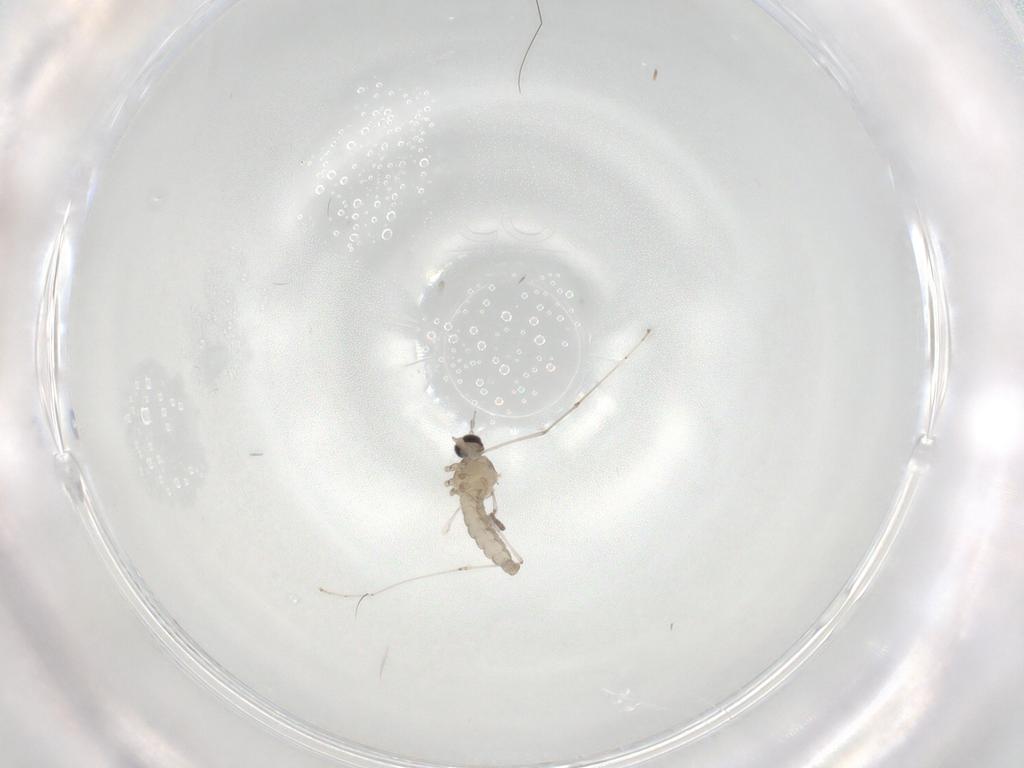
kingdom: Animalia
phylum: Arthropoda
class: Insecta
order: Diptera
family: Cecidomyiidae
